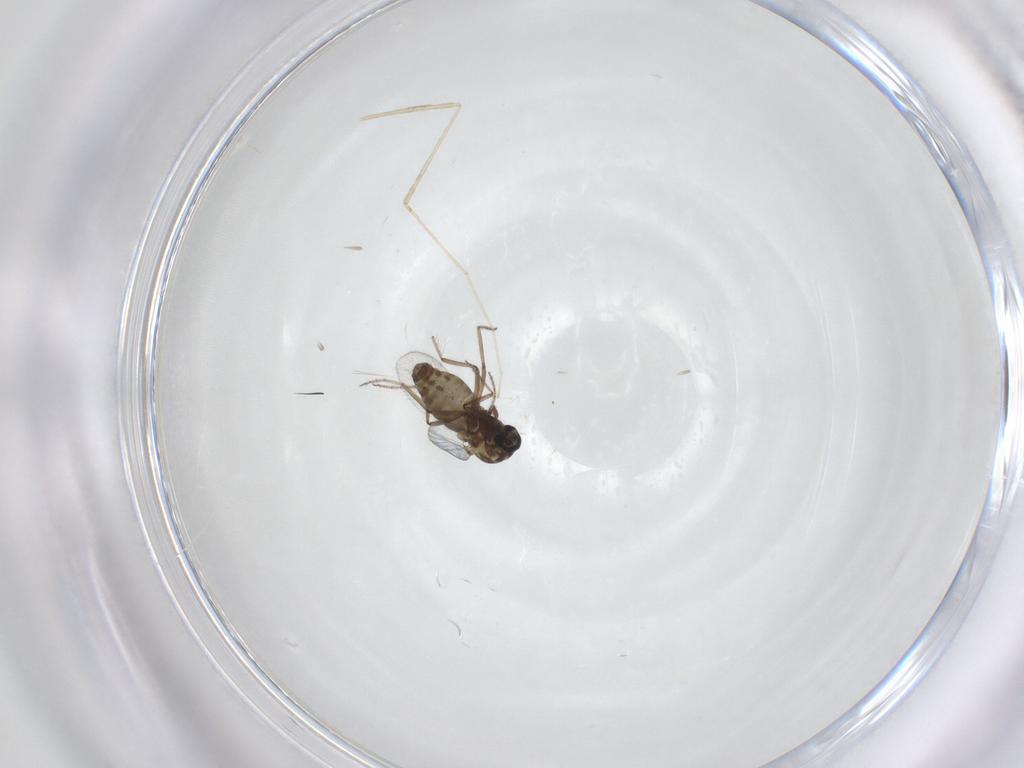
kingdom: Animalia
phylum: Arthropoda
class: Insecta
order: Diptera
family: Ceratopogonidae
